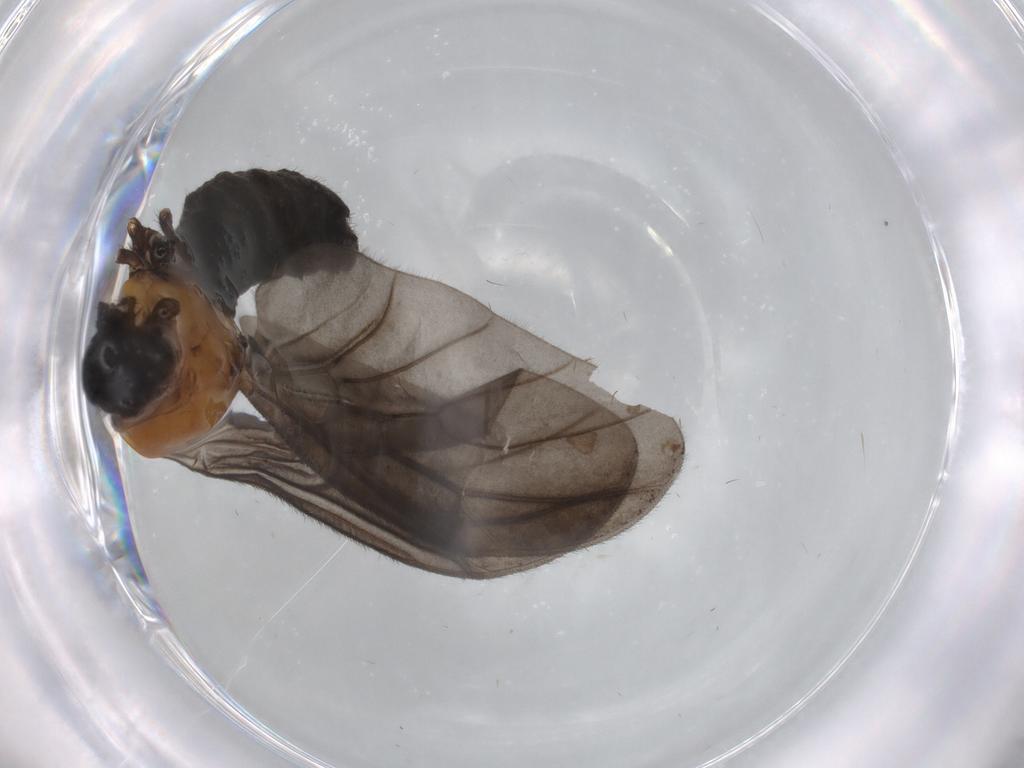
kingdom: Animalia
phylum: Arthropoda
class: Insecta
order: Diptera
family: Bibionidae
